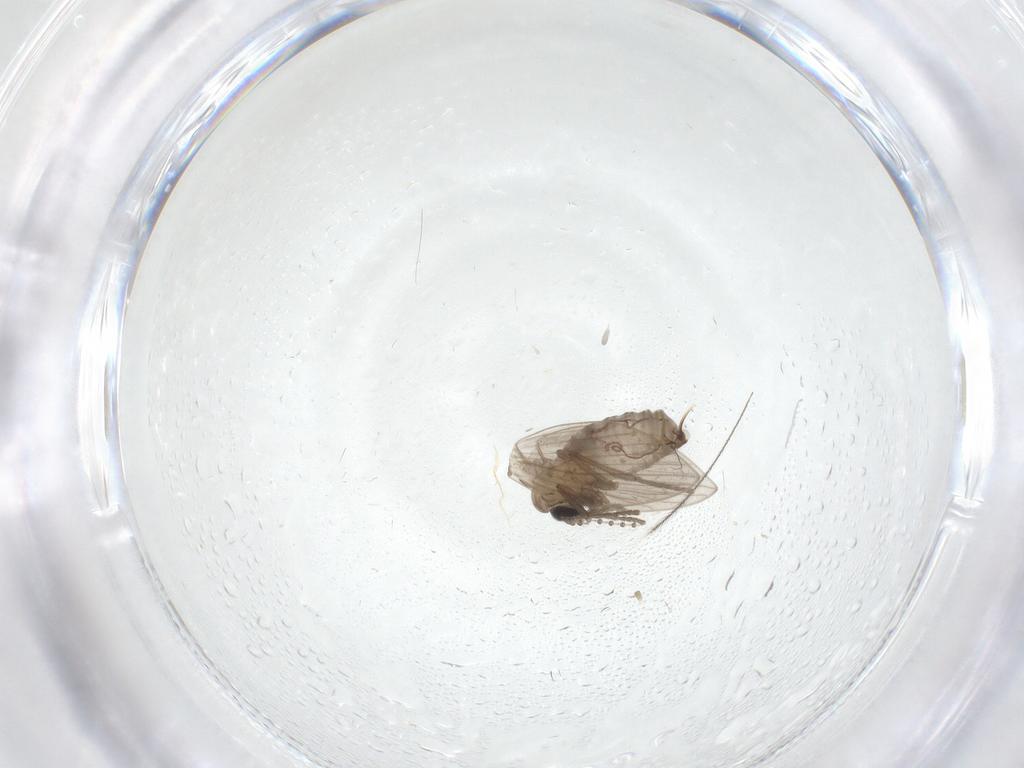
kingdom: Animalia
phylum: Arthropoda
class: Insecta
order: Diptera
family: Psychodidae
